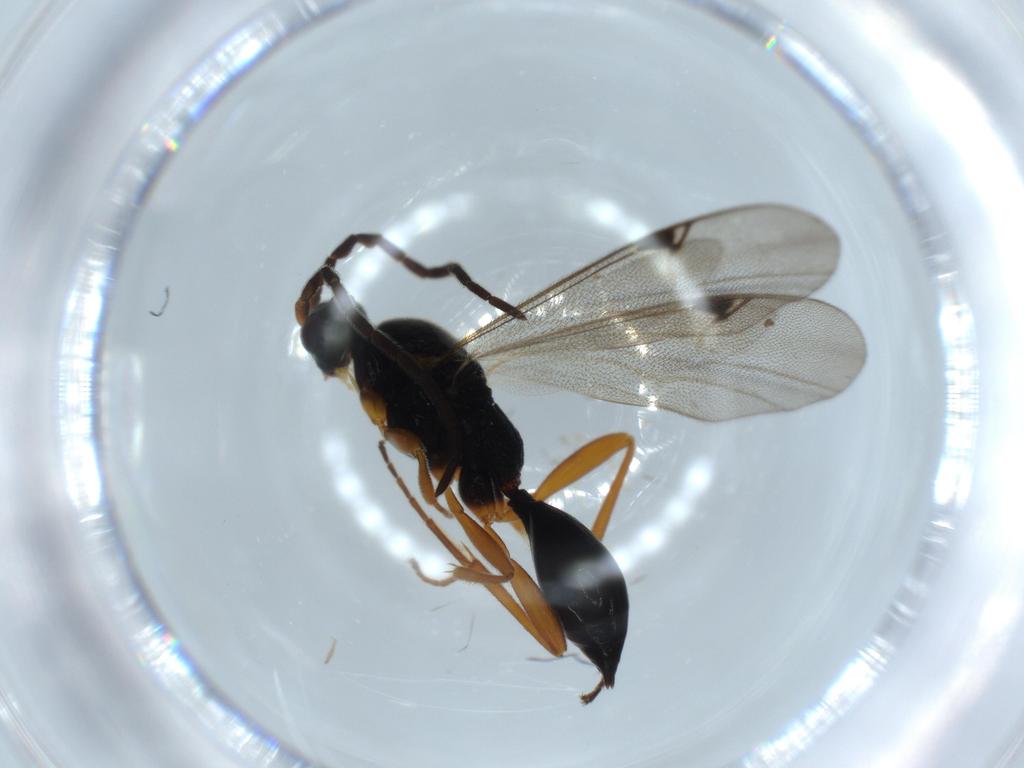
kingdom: Animalia
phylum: Arthropoda
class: Insecta
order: Hymenoptera
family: Proctotrupidae
